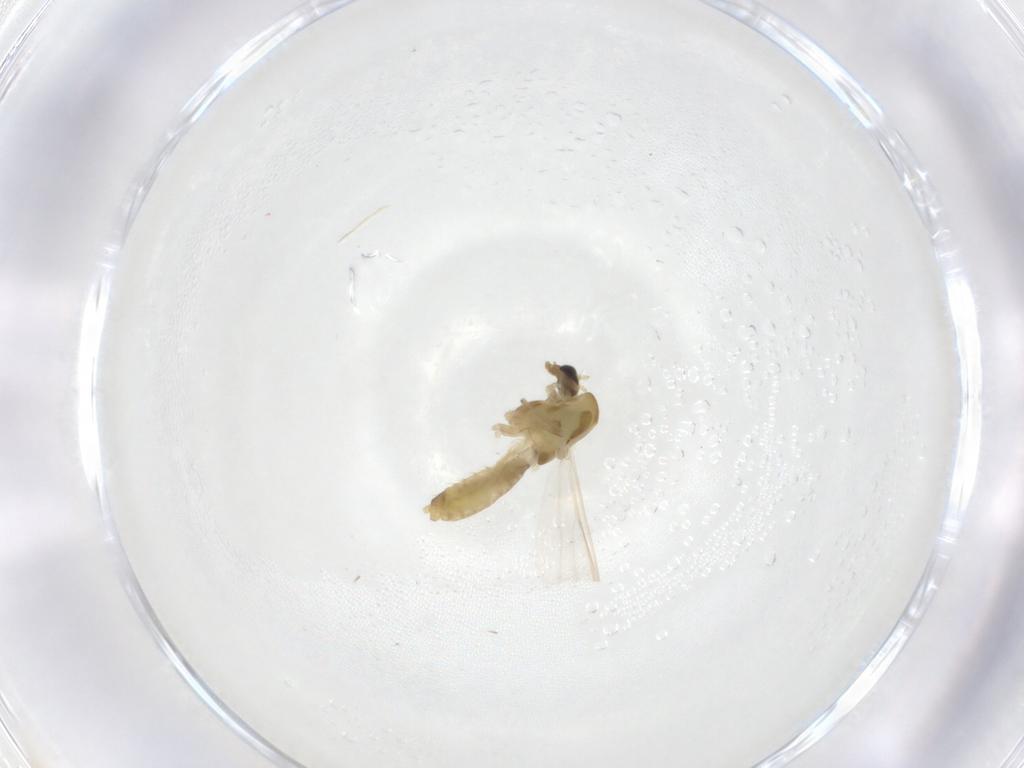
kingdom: Animalia
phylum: Arthropoda
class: Insecta
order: Diptera
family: Chironomidae
